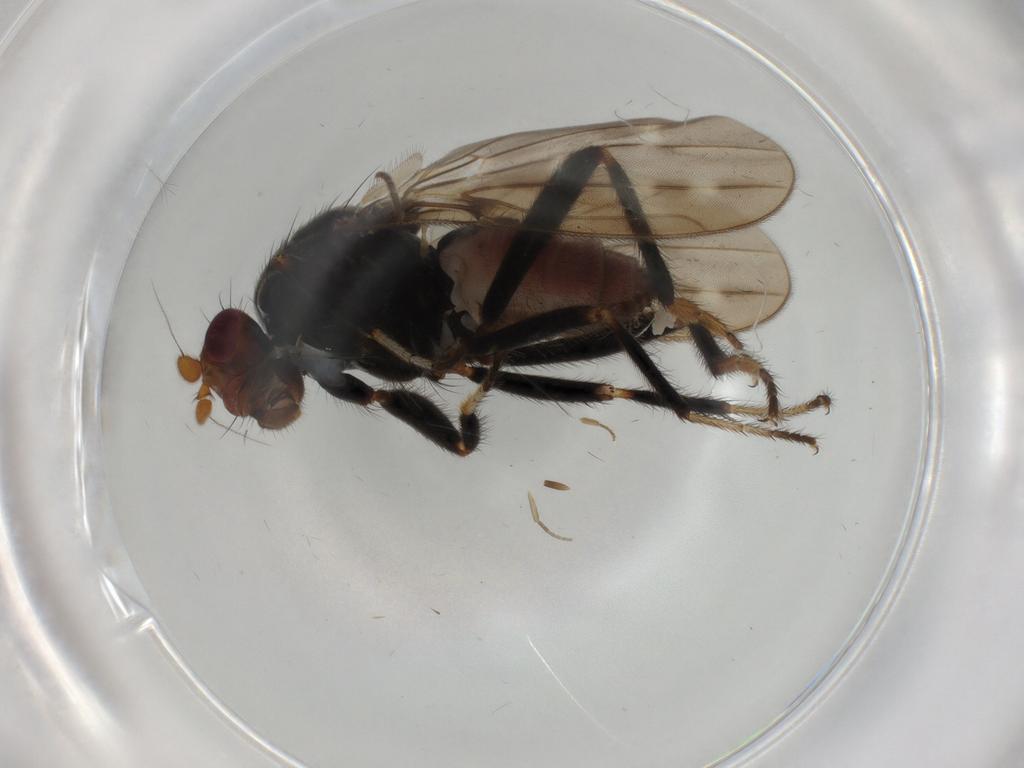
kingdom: Animalia
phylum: Arthropoda
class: Insecta
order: Diptera
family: Sphaeroceridae
